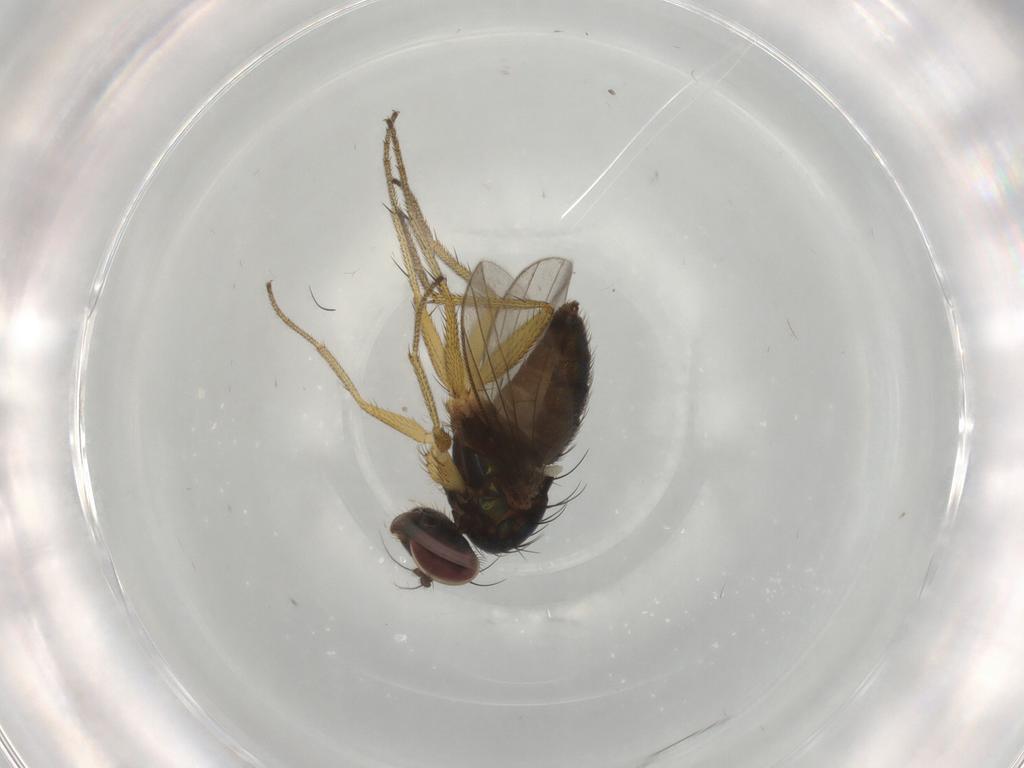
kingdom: Animalia
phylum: Arthropoda
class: Insecta
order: Diptera
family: Dolichopodidae
